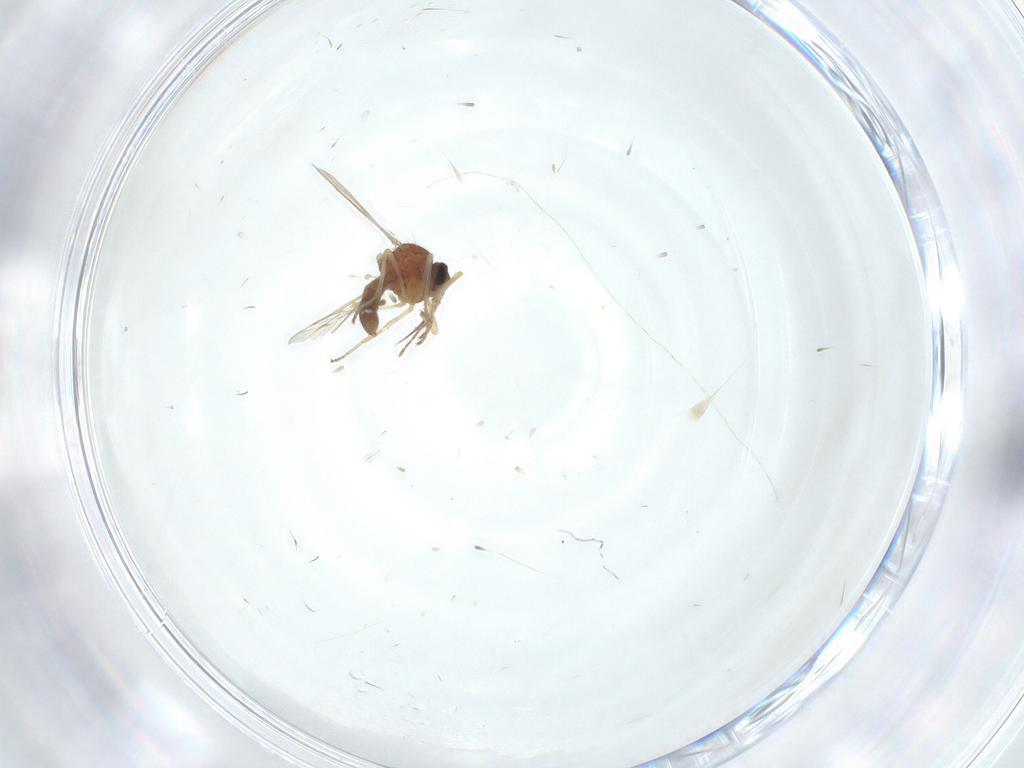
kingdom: Animalia
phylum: Arthropoda
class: Insecta
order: Diptera
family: Ceratopogonidae
